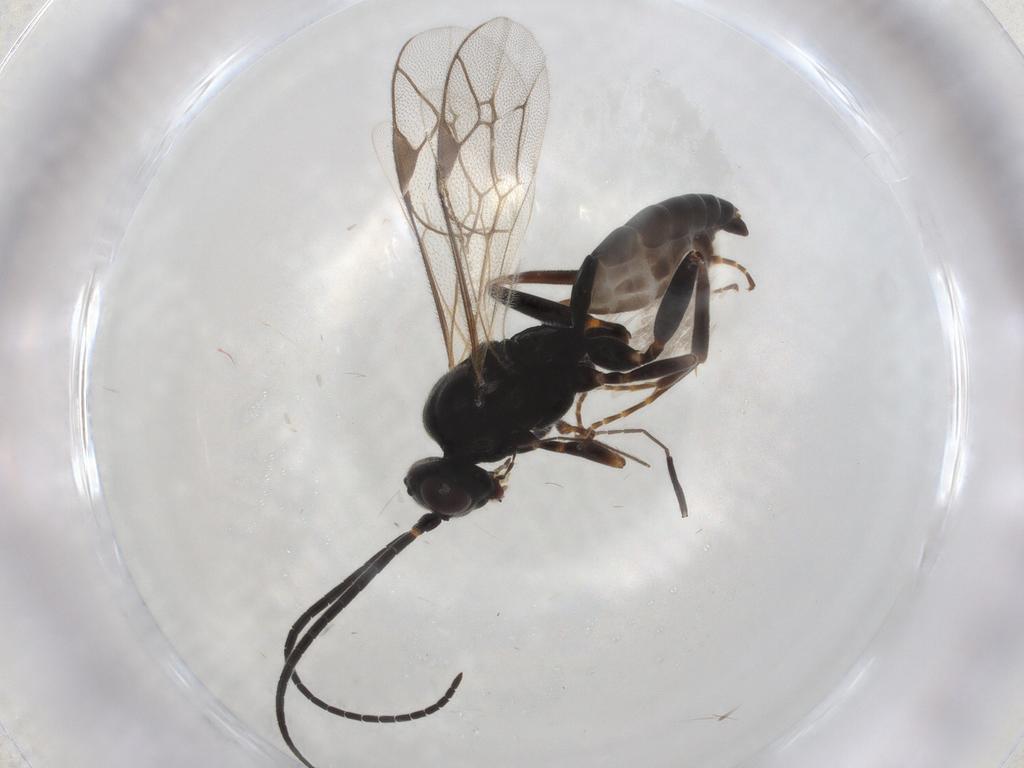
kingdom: Animalia
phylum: Arthropoda
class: Insecta
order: Hymenoptera
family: Ichneumonidae
